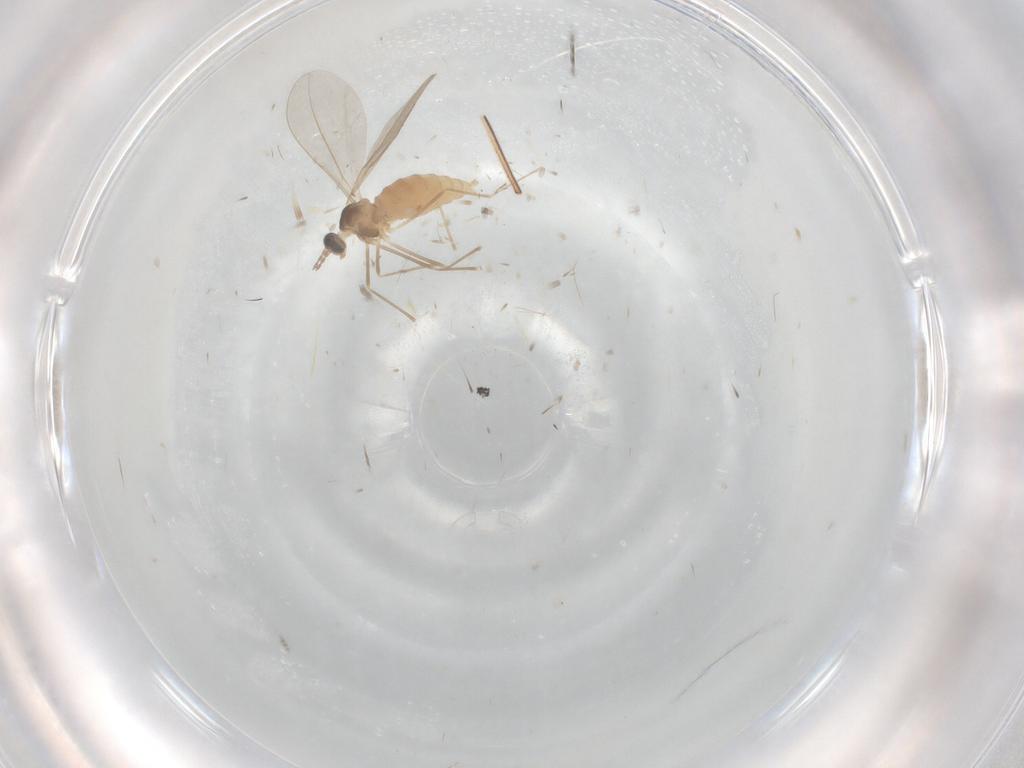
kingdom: Animalia
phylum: Arthropoda
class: Insecta
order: Diptera
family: Cecidomyiidae
